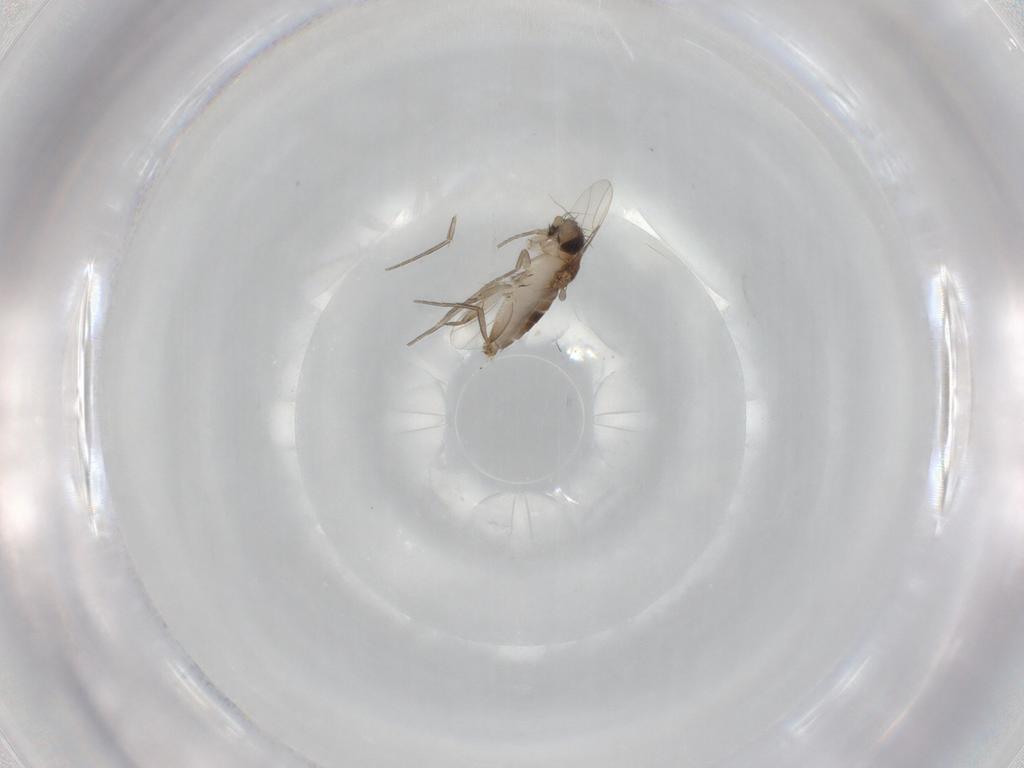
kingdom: Animalia
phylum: Arthropoda
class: Insecta
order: Diptera
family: Phoridae
